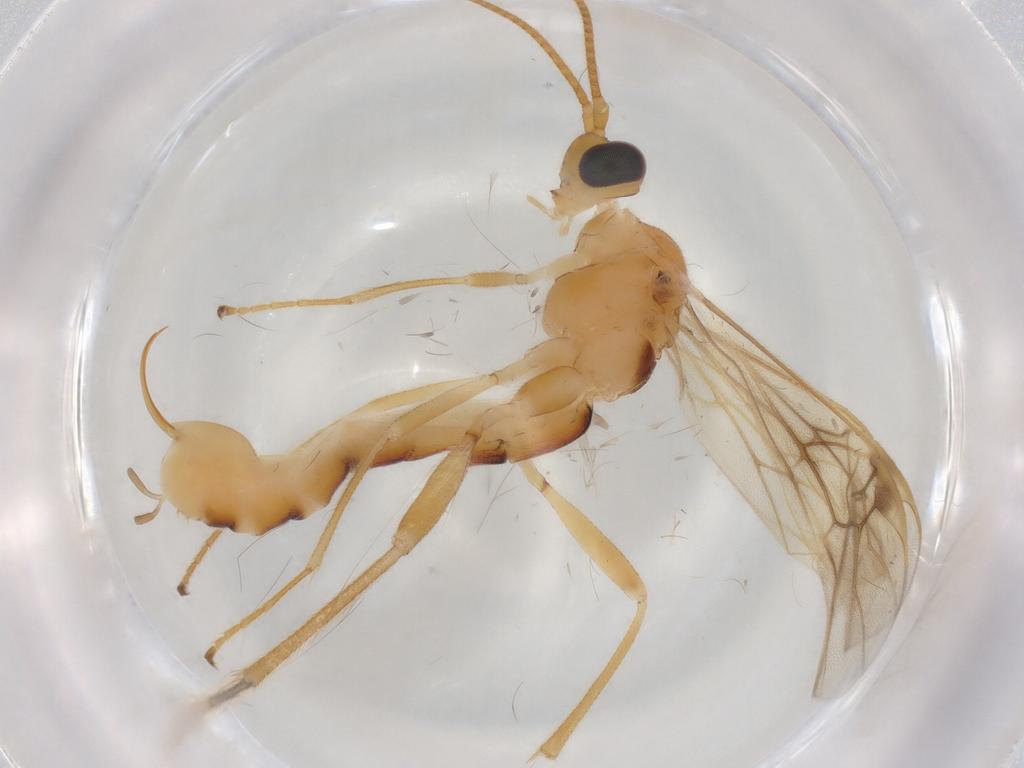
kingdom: Animalia
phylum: Arthropoda
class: Insecta
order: Hymenoptera
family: Evaniidae
